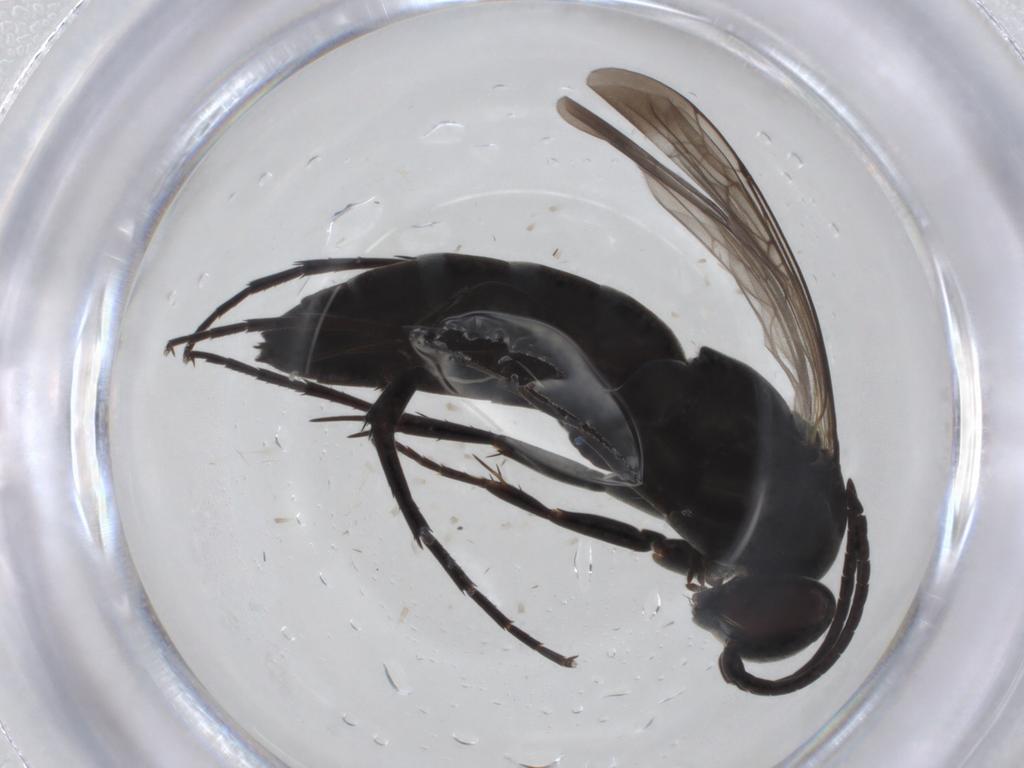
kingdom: Animalia
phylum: Arthropoda
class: Insecta
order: Hymenoptera
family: Pompilidae
